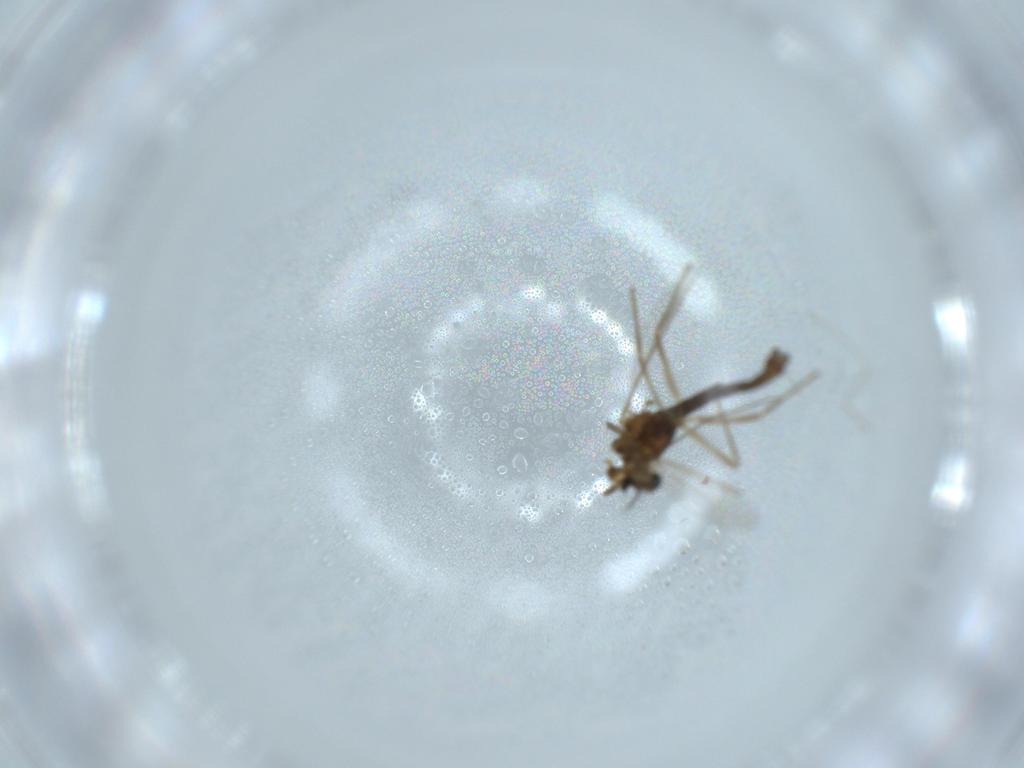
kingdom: Animalia
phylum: Arthropoda
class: Insecta
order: Diptera
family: Chironomidae
